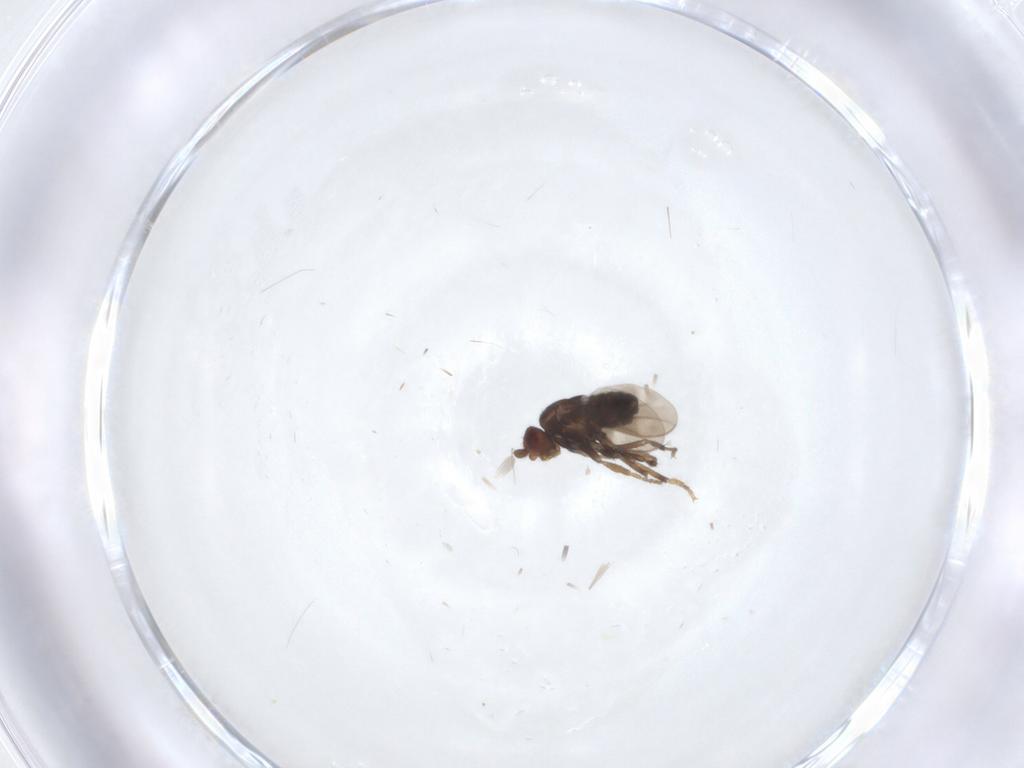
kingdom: Animalia
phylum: Arthropoda
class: Insecta
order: Diptera
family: Sphaeroceridae
